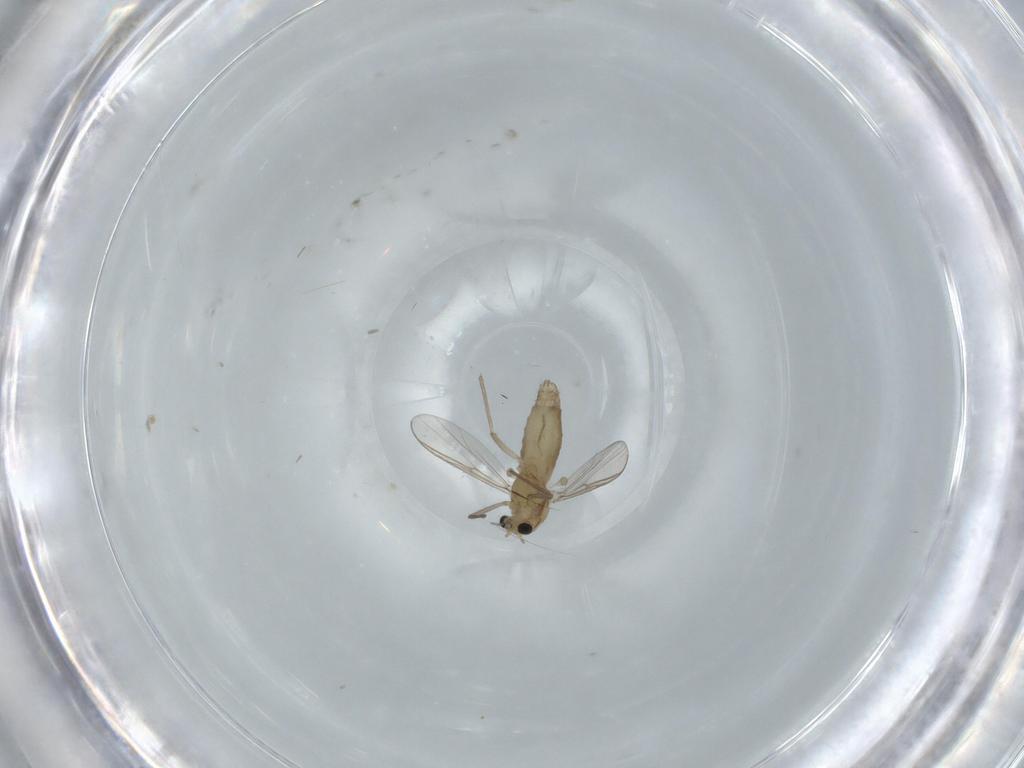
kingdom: Animalia
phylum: Arthropoda
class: Insecta
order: Diptera
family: Chironomidae
